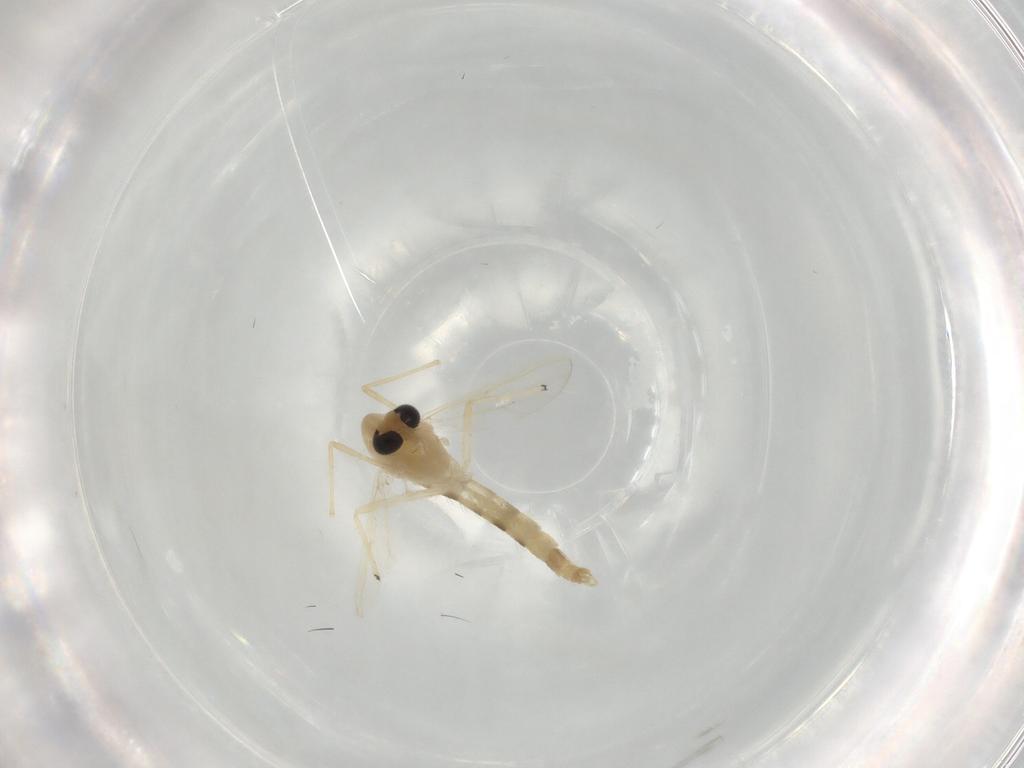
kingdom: Animalia
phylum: Arthropoda
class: Insecta
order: Diptera
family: Chironomidae
